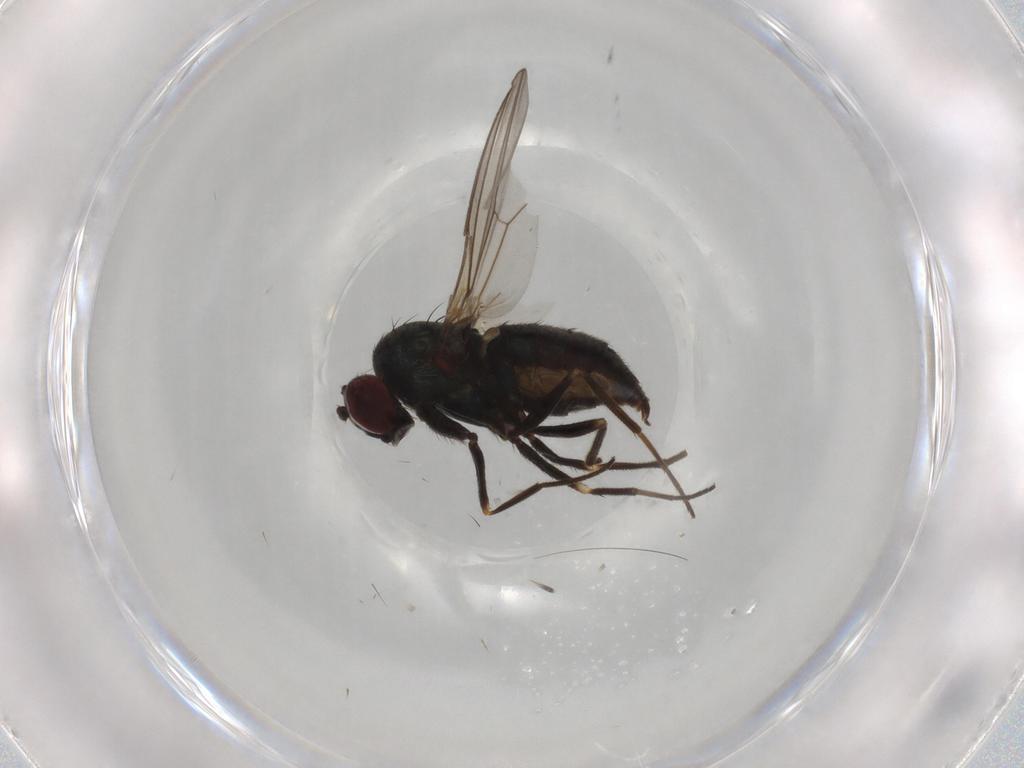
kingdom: Animalia
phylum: Arthropoda
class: Insecta
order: Diptera
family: Dolichopodidae
